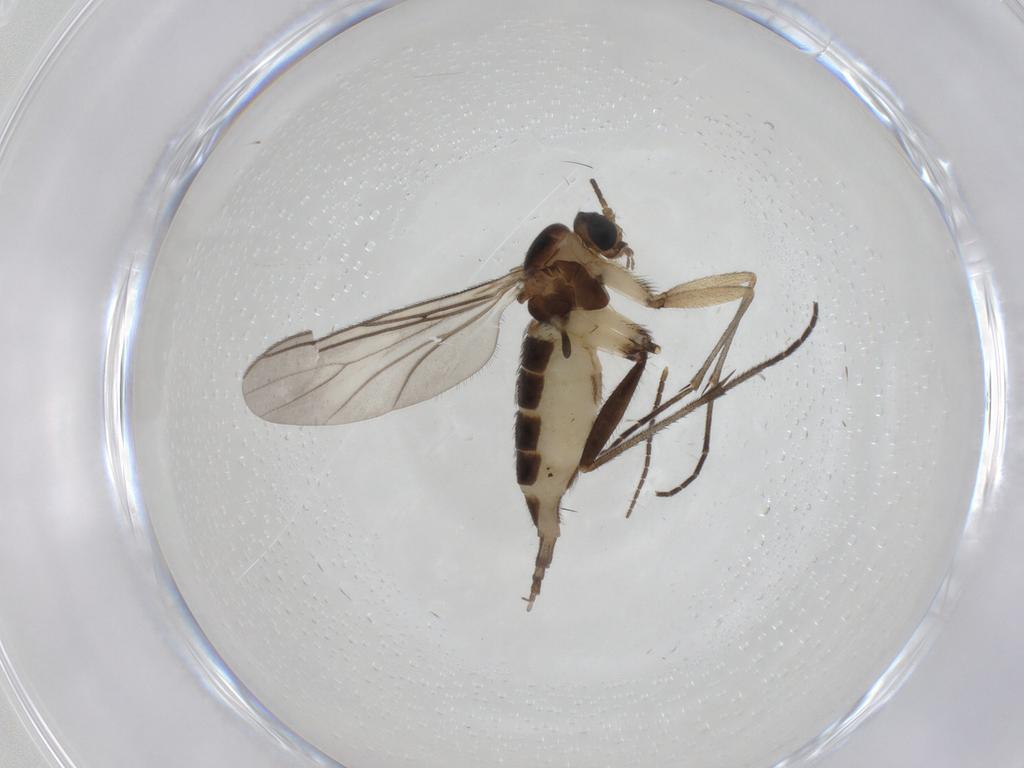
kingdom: Animalia
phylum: Arthropoda
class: Insecta
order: Diptera
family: Sciaridae
